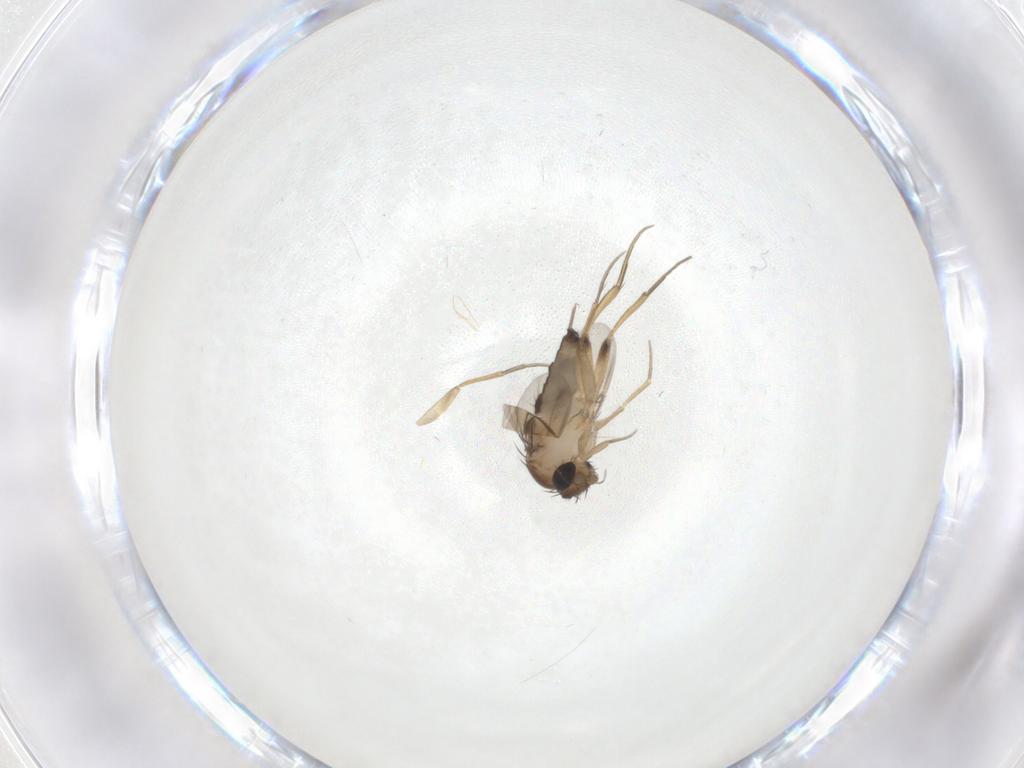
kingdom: Animalia
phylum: Arthropoda
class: Insecta
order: Diptera
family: Phoridae
